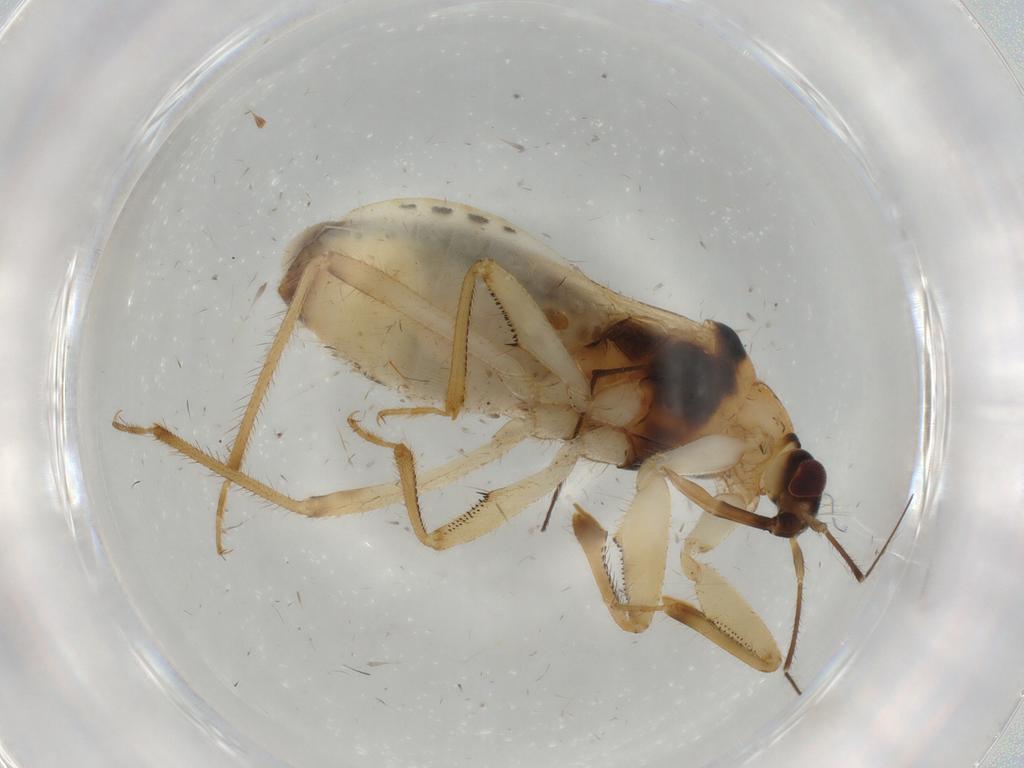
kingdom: Animalia
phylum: Arthropoda
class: Insecta
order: Hemiptera
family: Nabidae
